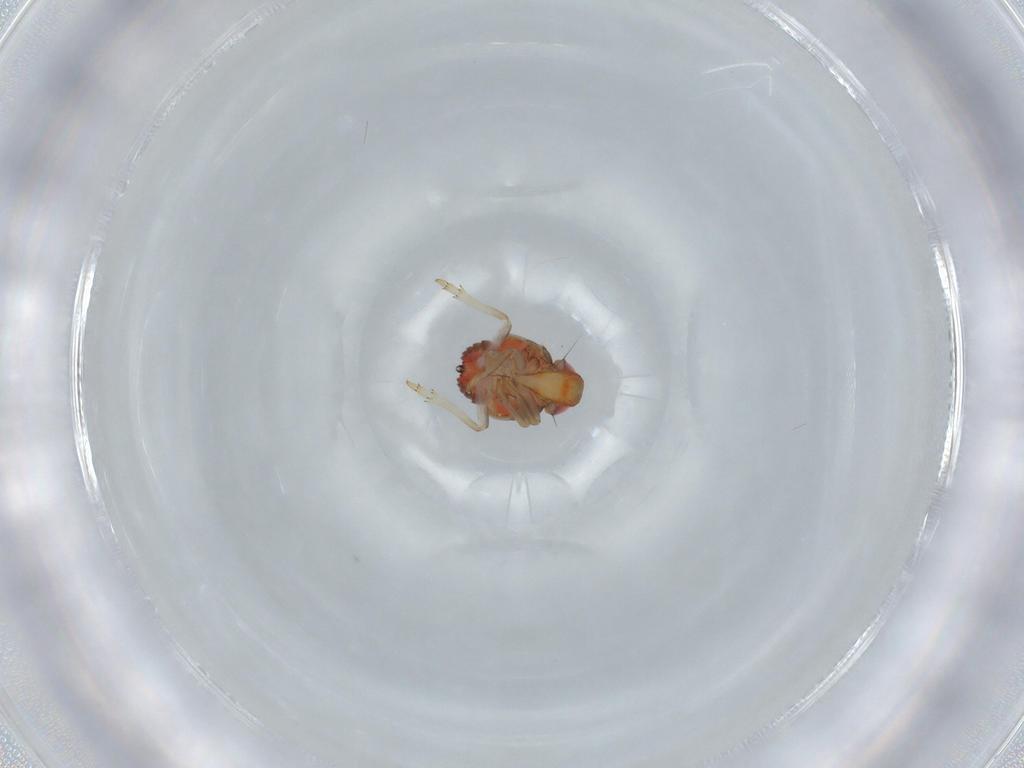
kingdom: Animalia
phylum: Arthropoda
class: Insecta
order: Hemiptera
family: Issidae
